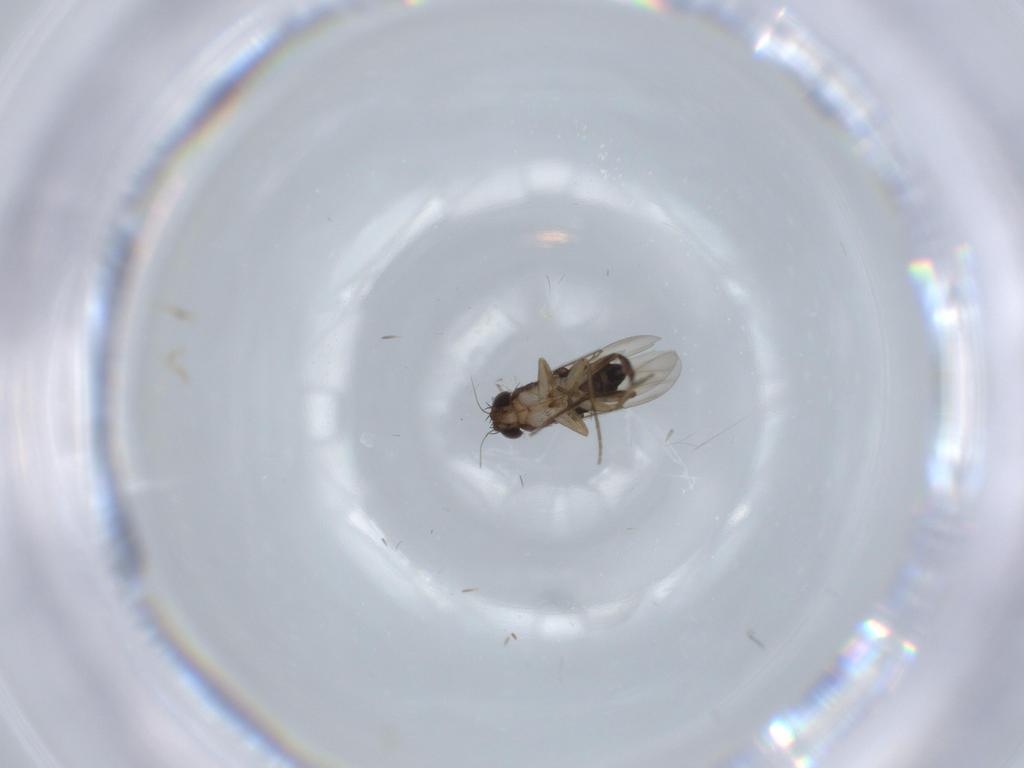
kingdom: Animalia
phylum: Arthropoda
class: Insecta
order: Diptera
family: Phoridae
